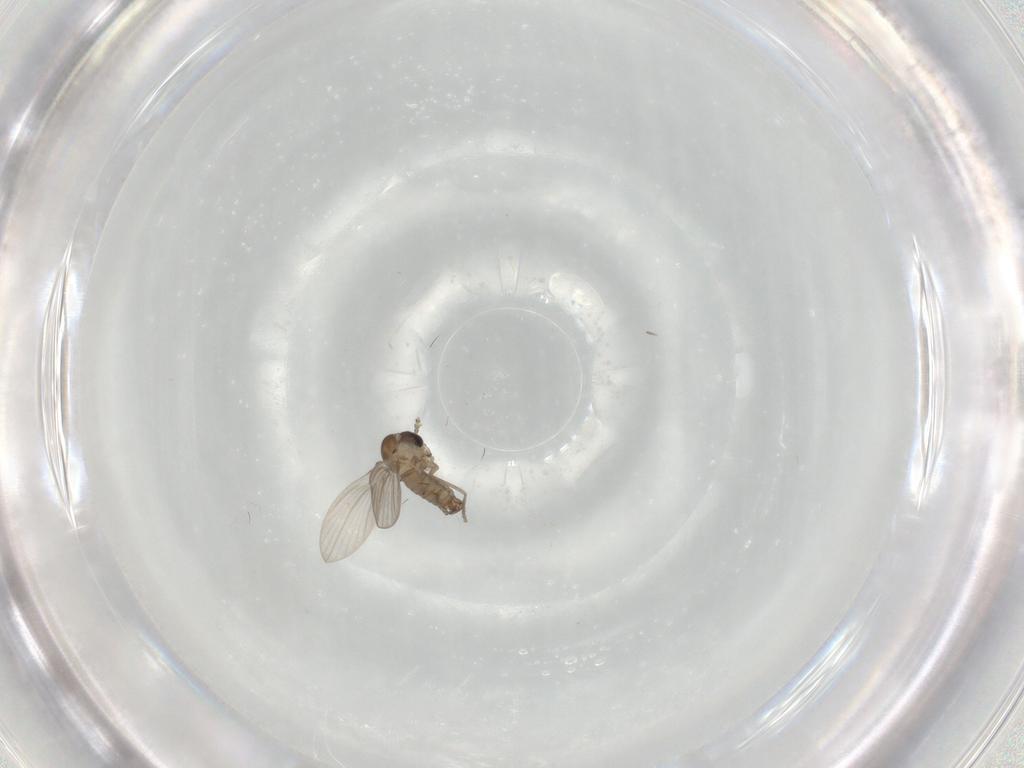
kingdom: Animalia
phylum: Arthropoda
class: Insecta
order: Diptera
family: Psychodidae
